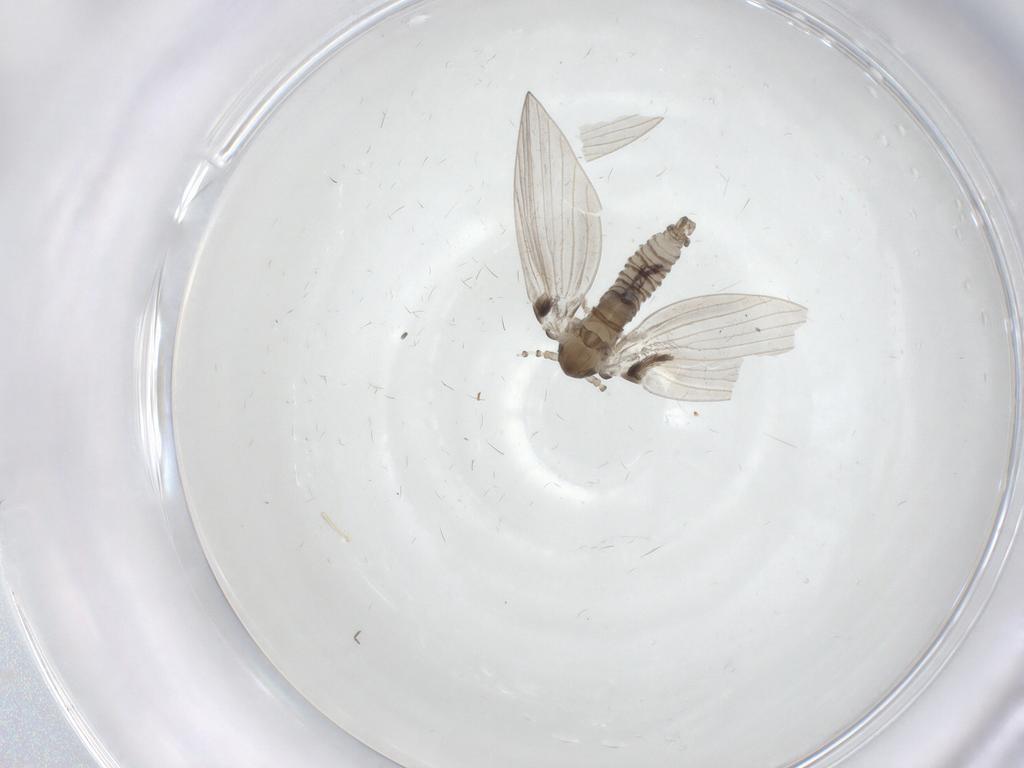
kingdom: Animalia
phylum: Arthropoda
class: Insecta
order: Diptera
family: Psychodidae
